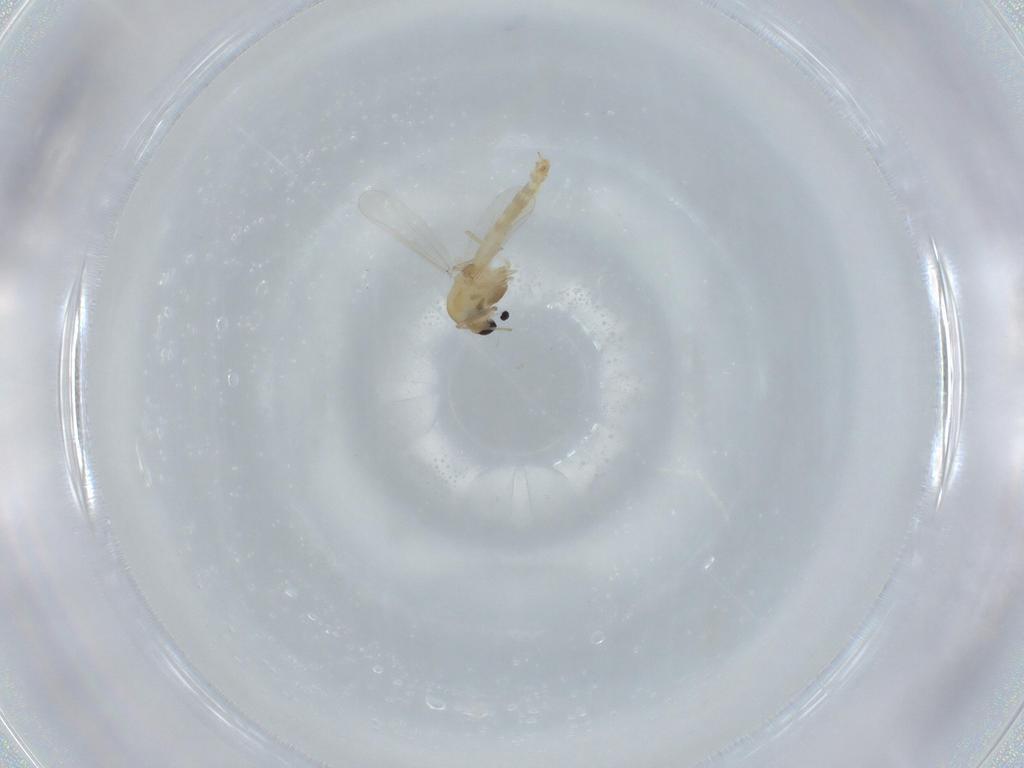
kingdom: Animalia
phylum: Arthropoda
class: Insecta
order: Diptera
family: Chironomidae
